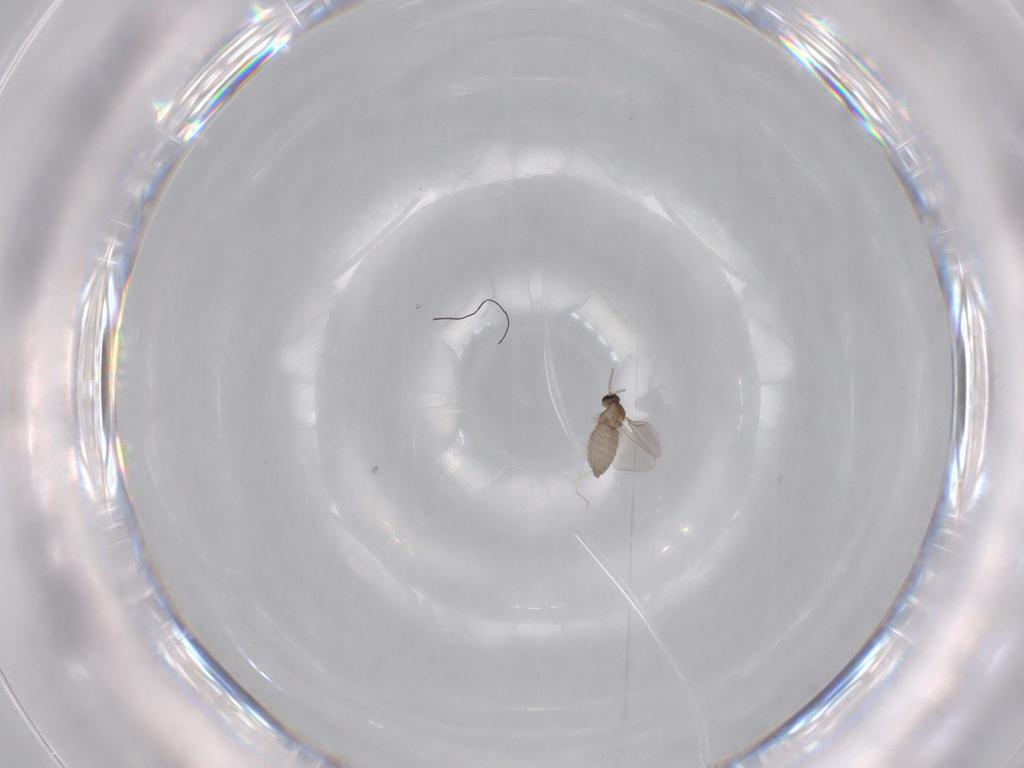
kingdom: Animalia
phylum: Arthropoda
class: Insecta
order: Diptera
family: Cecidomyiidae
